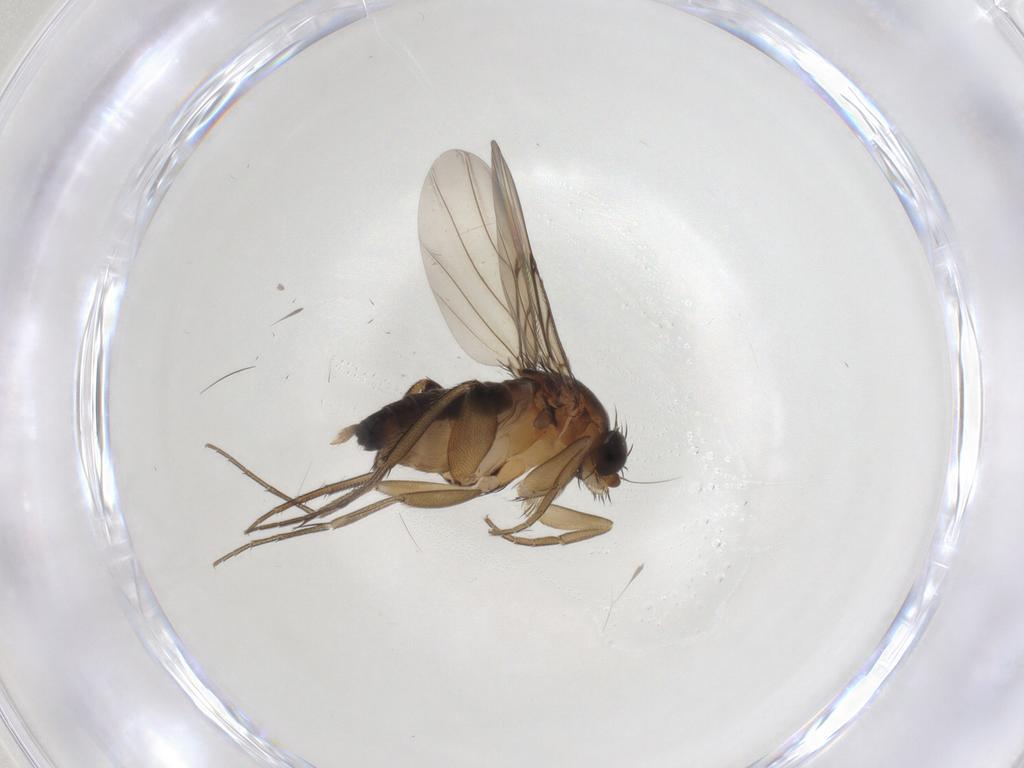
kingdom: Animalia
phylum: Arthropoda
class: Insecta
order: Diptera
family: Phoridae
